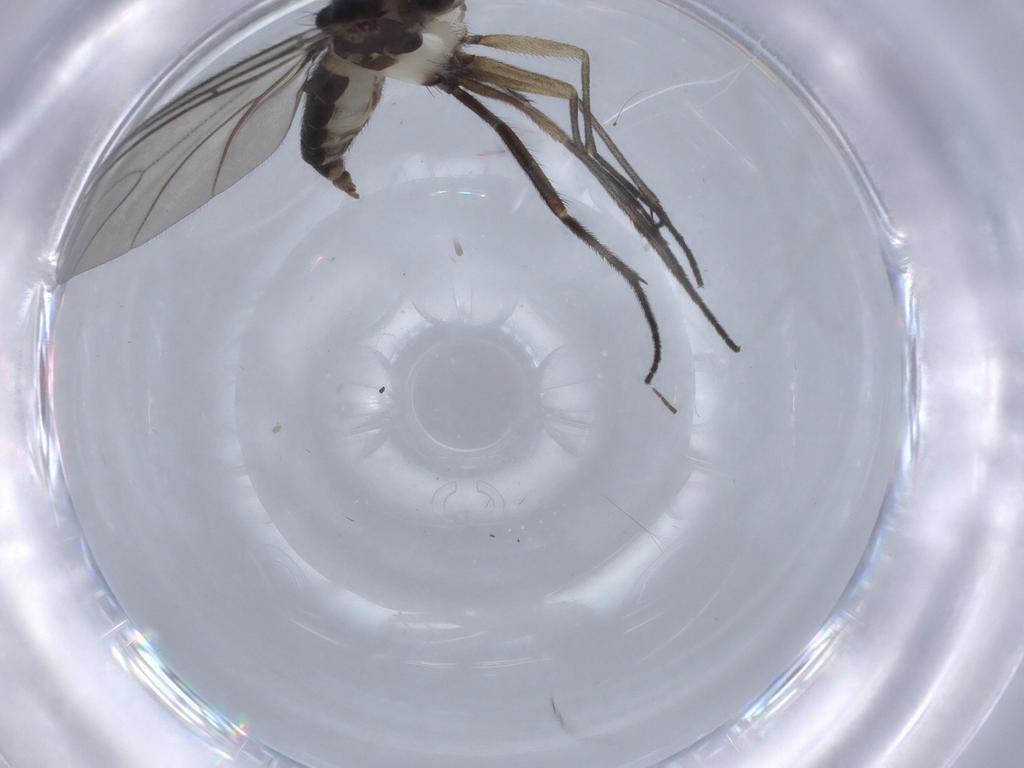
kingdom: Animalia
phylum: Arthropoda
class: Insecta
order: Diptera
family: Sciaridae
